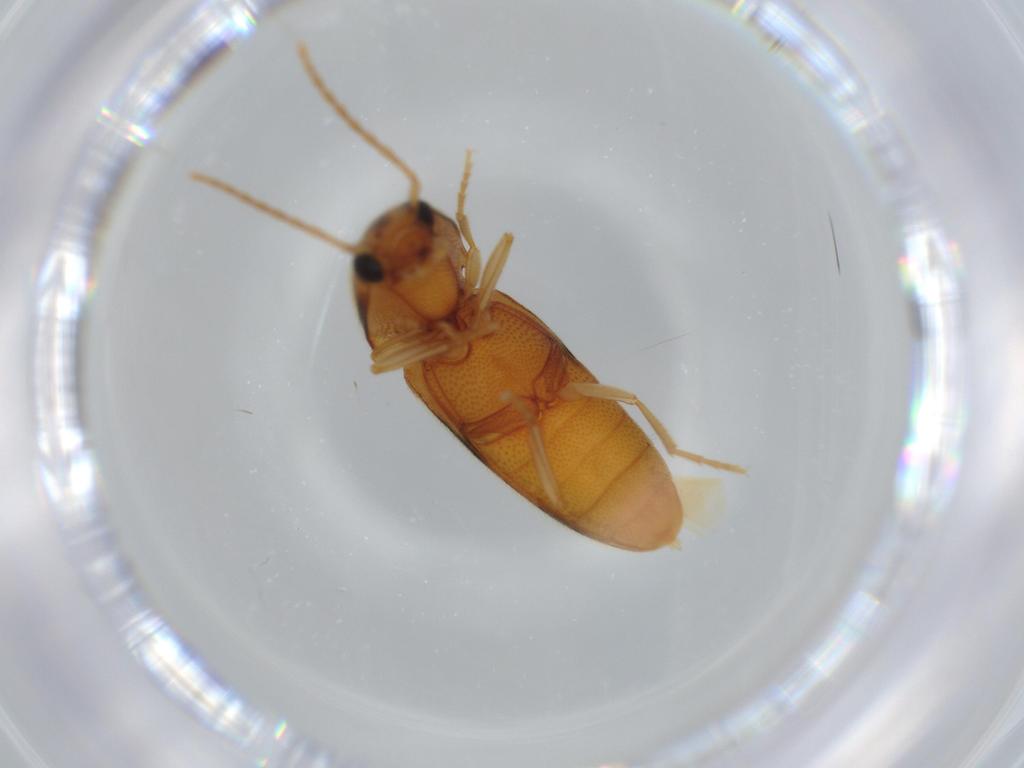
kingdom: Animalia
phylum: Arthropoda
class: Insecta
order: Coleoptera
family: Elateridae
